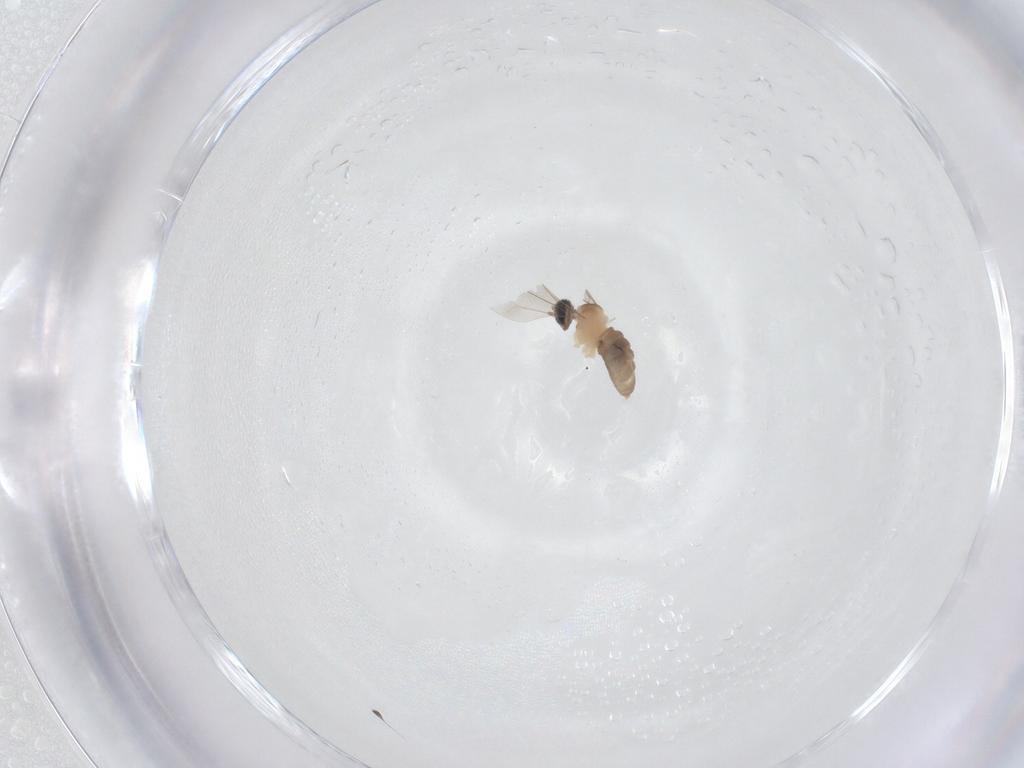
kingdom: Animalia
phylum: Arthropoda
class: Insecta
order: Diptera
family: Cecidomyiidae
